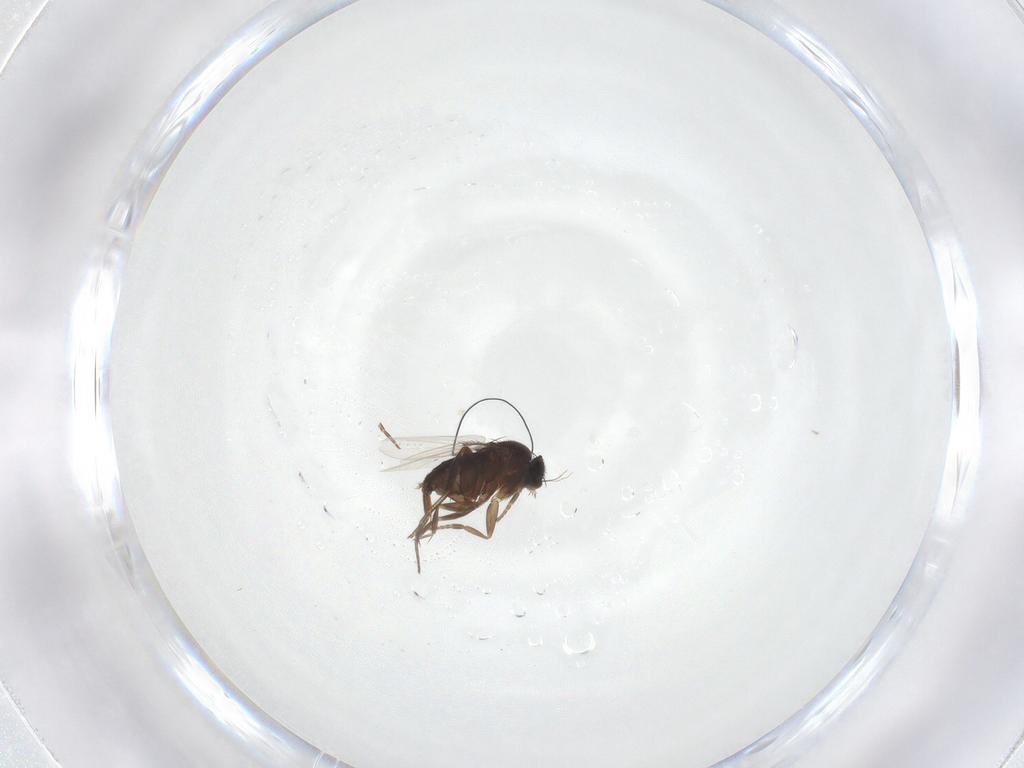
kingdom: Animalia
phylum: Arthropoda
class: Insecta
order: Diptera
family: Phoridae
